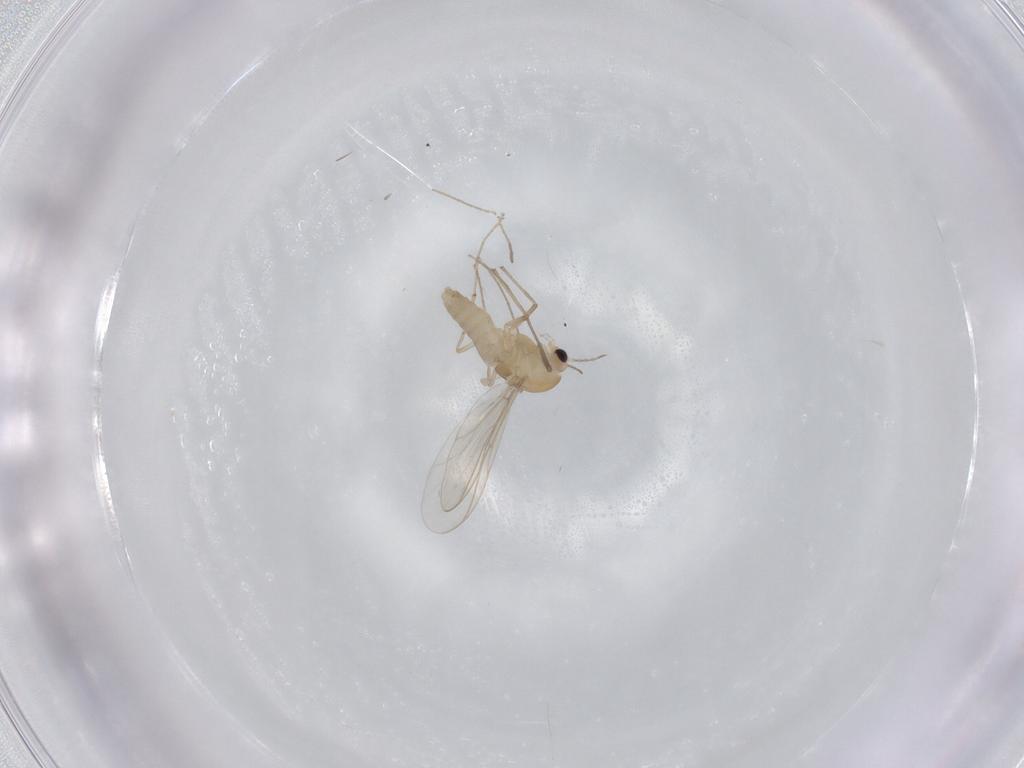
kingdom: Animalia
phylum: Arthropoda
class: Insecta
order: Diptera
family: Chironomidae
